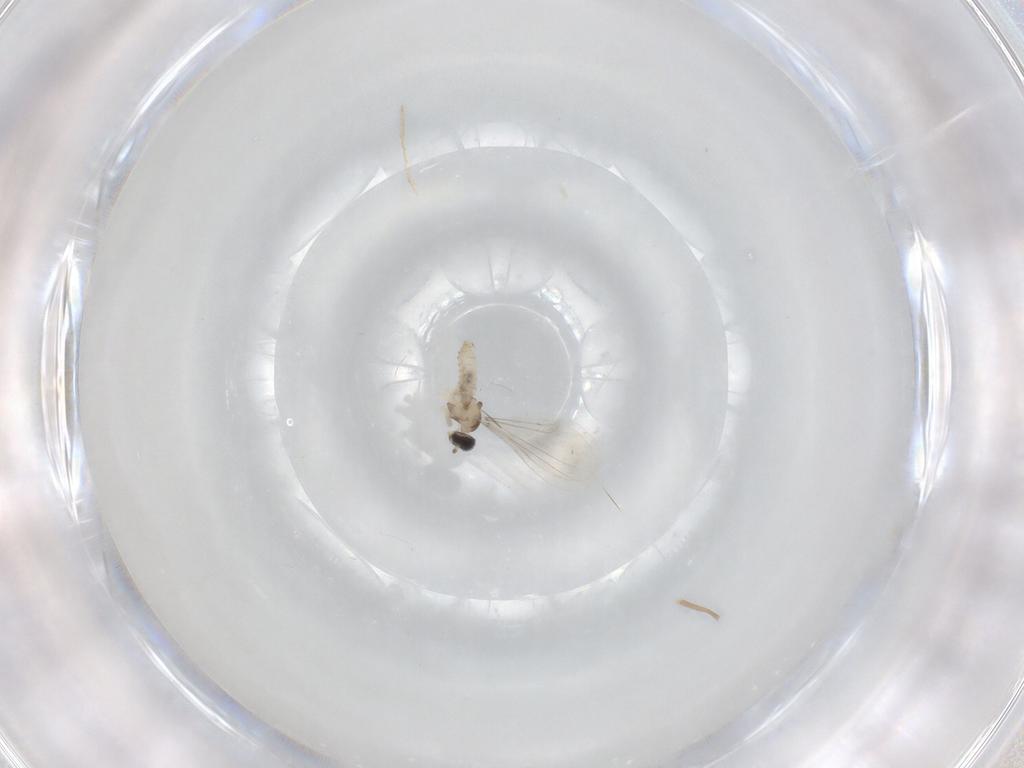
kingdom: Animalia
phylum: Arthropoda
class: Insecta
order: Diptera
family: Cecidomyiidae
